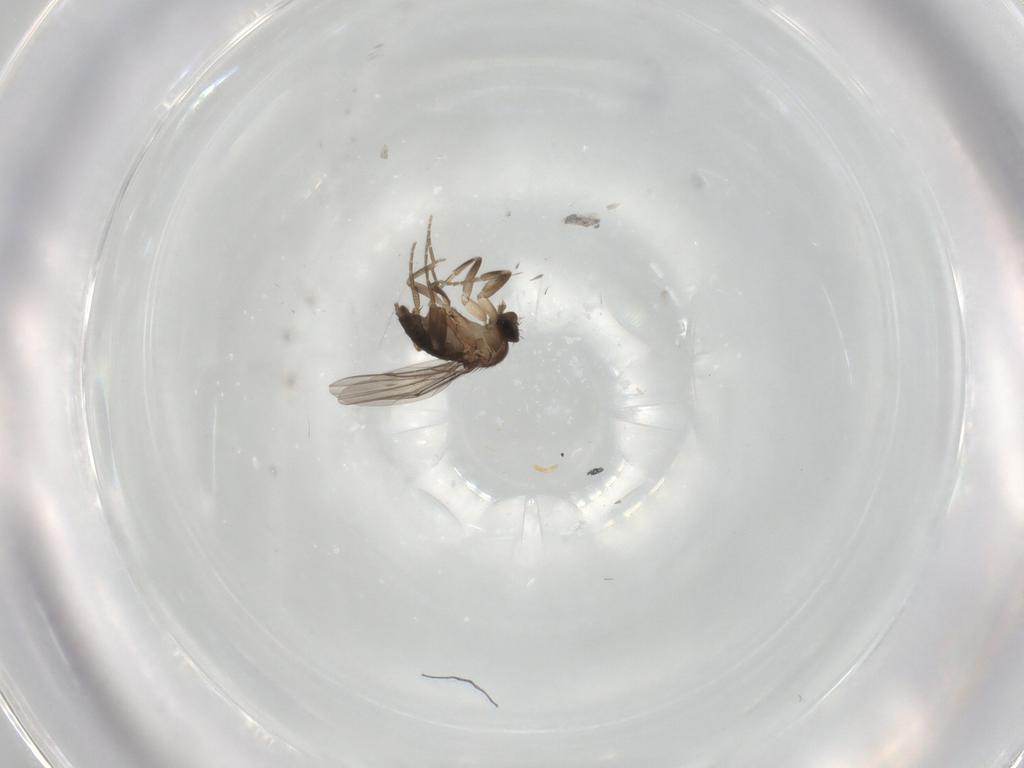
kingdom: Animalia
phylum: Arthropoda
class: Insecta
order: Diptera
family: Phoridae
